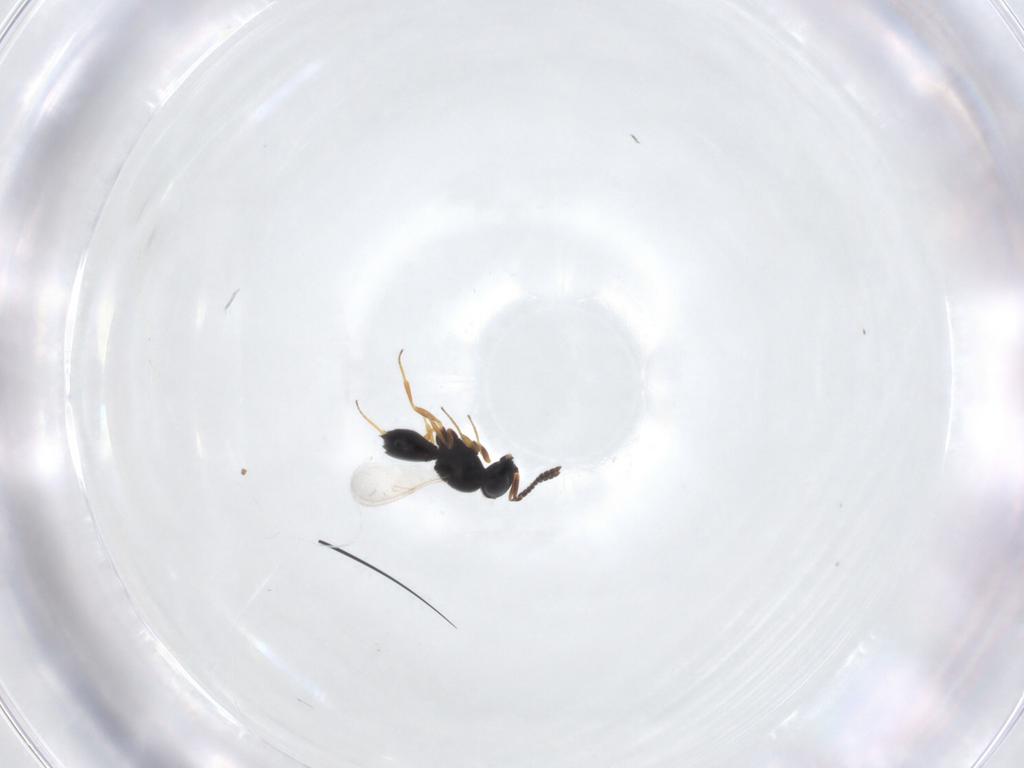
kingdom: Animalia
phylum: Arthropoda
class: Insecta
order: Hymenoptera
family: Scelionidae
